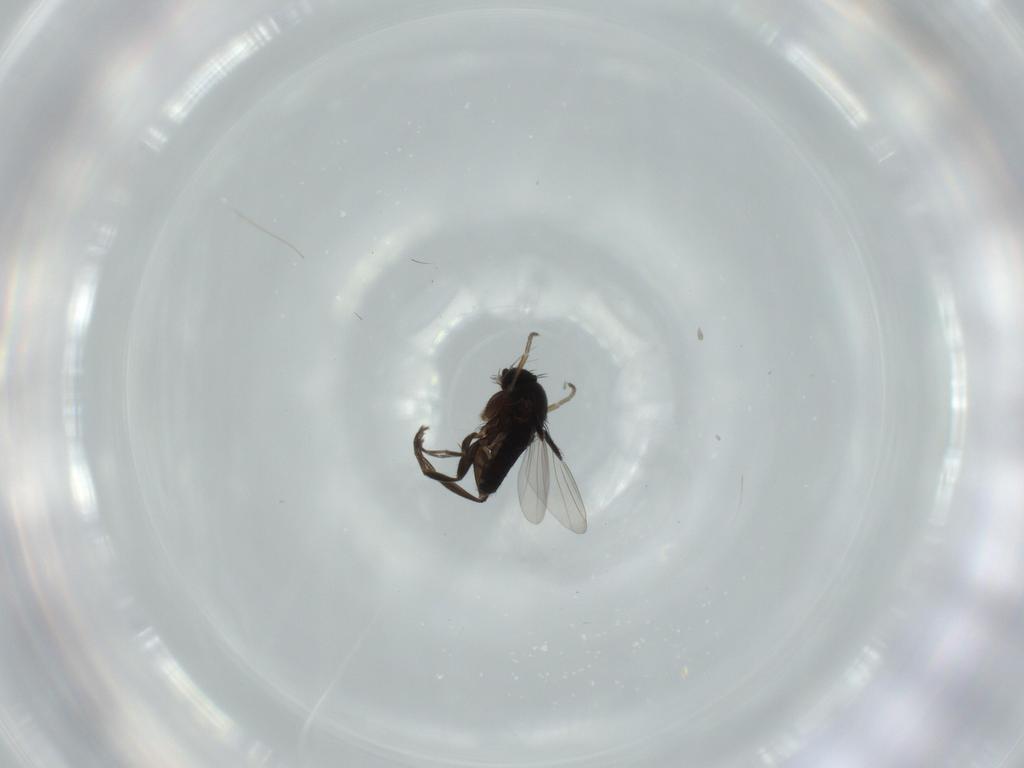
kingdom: Animalia
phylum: Arthropoda
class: Insecta
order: Diptera
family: Phoridae
